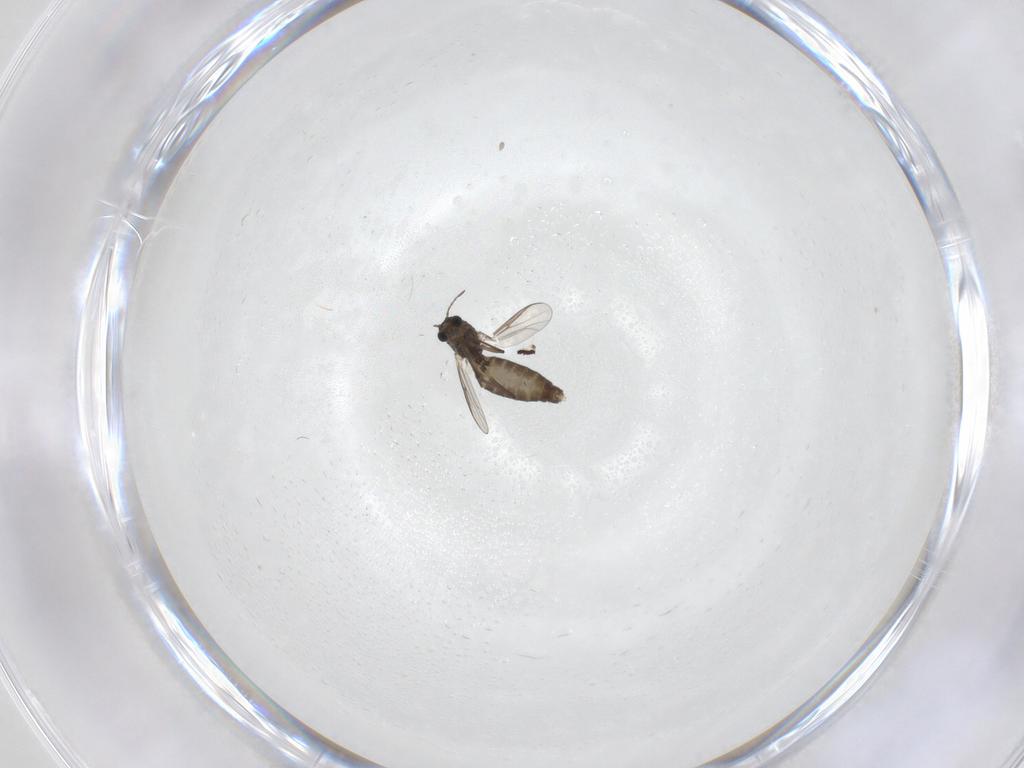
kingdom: Animalia
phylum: Arthropoda
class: Insecta
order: Diptera
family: Chironomidae
